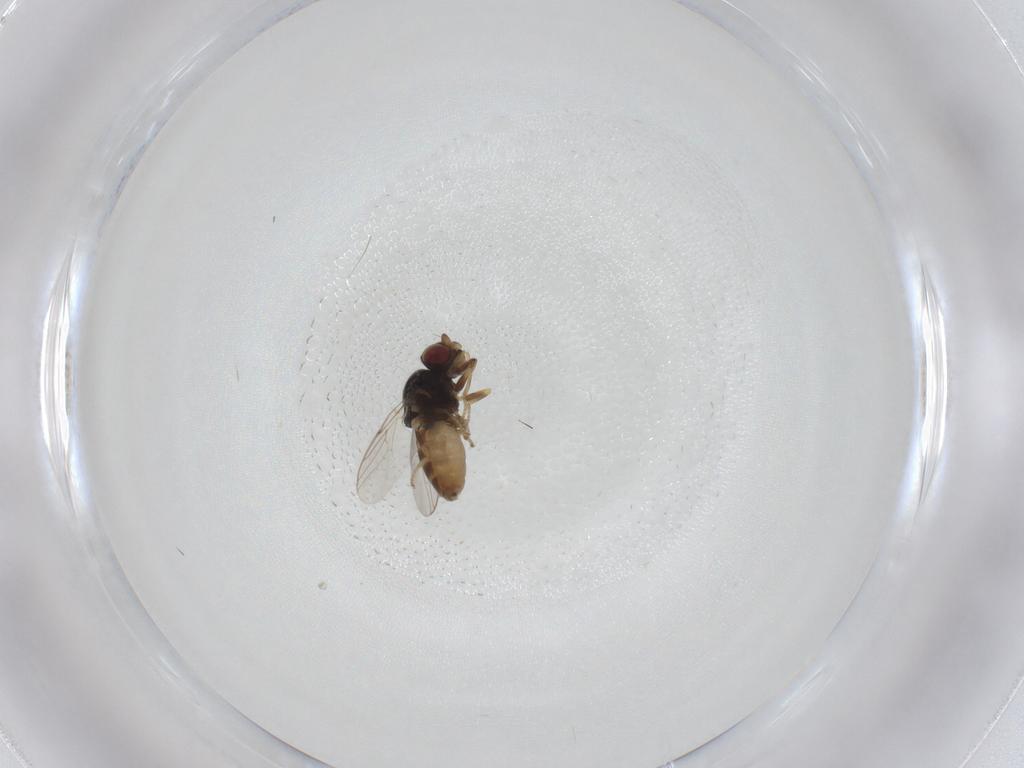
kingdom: Animalia
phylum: Arthropoda
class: Insecta
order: Diptera
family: Chloropidae
